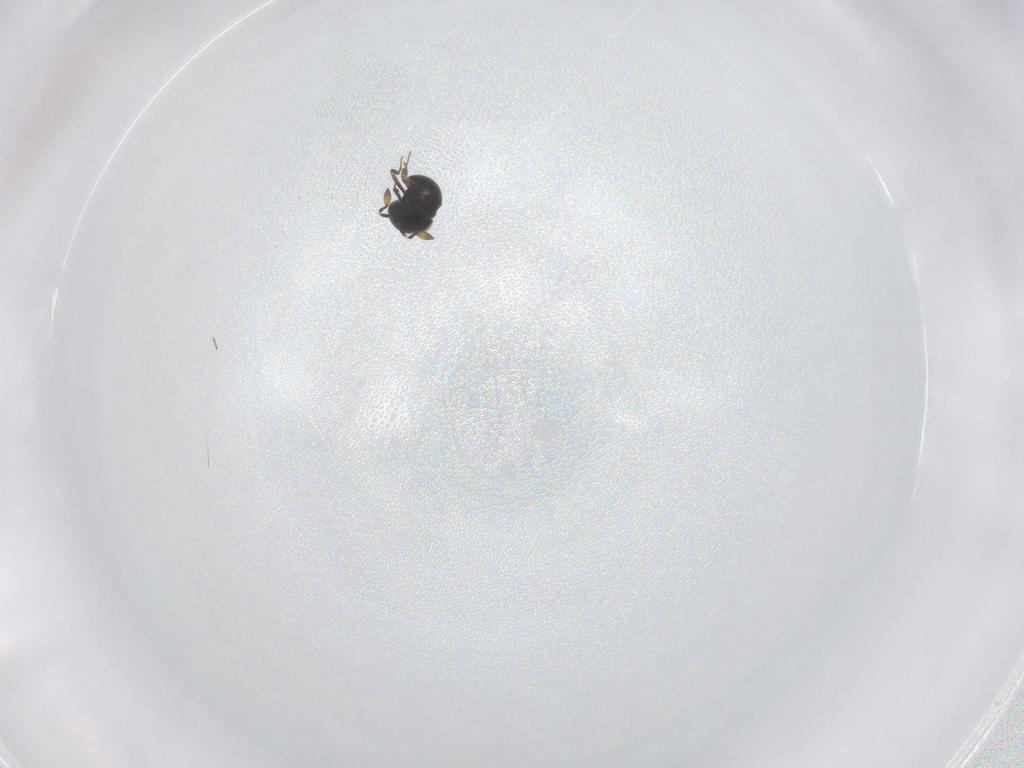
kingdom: Animalia
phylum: Arthropoda
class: Insecta
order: Hymenoptera
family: Scelionidae
